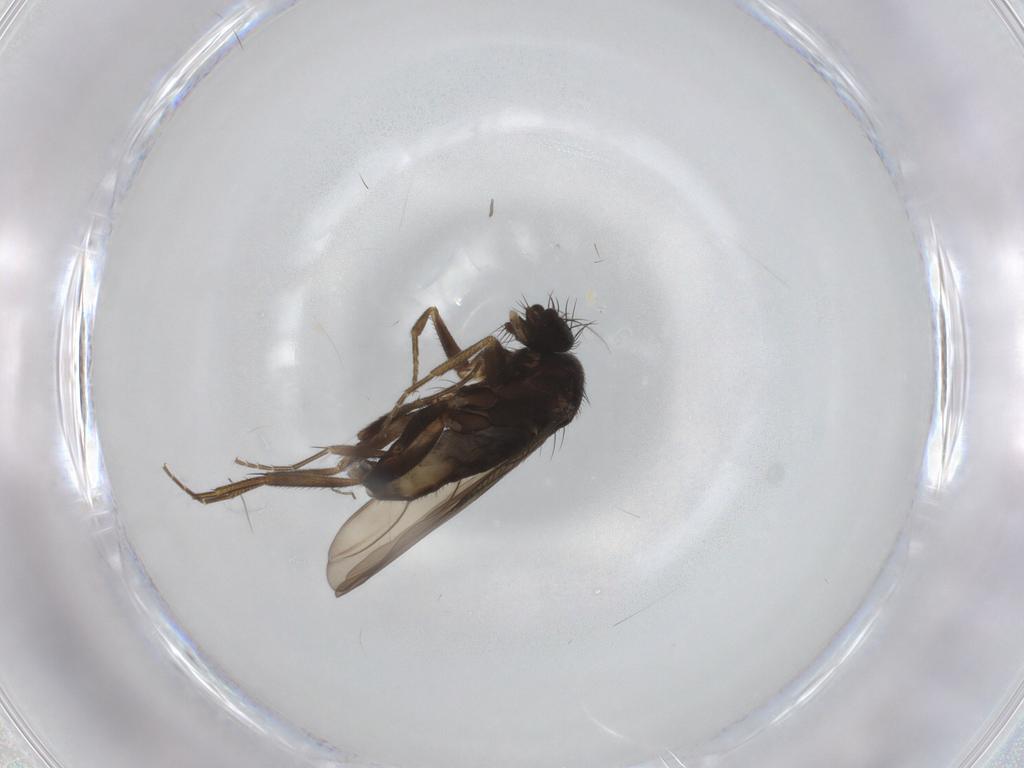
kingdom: Animalia
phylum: Arthropoda
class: Insecta
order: Diptera
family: Phoridae
